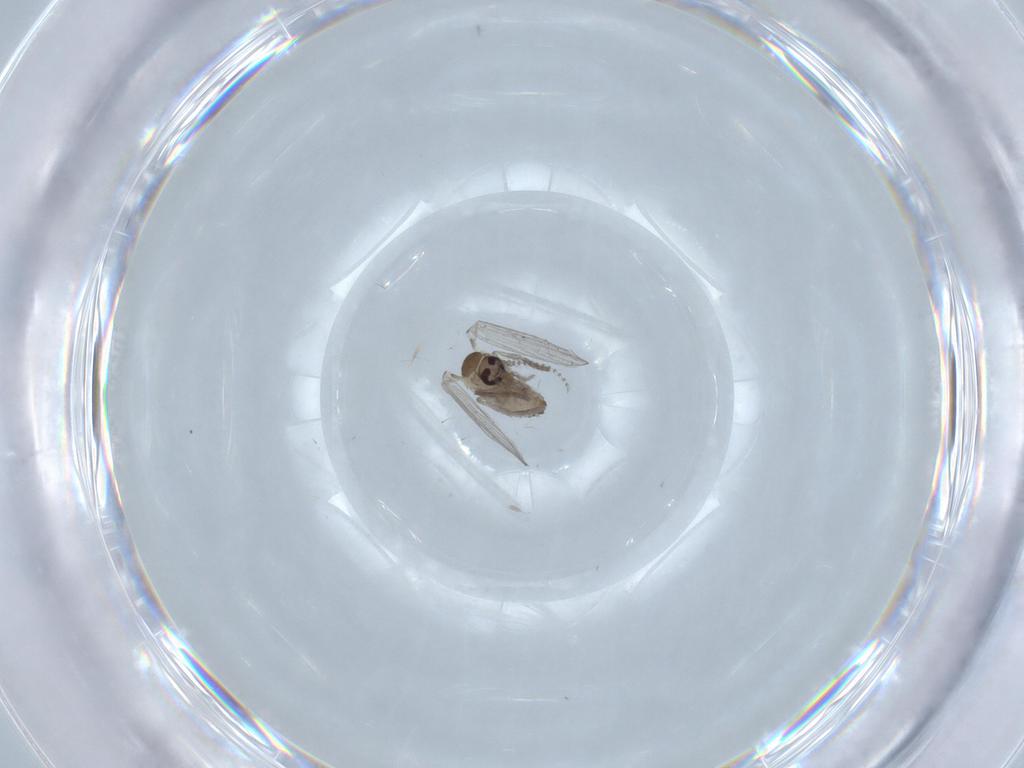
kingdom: Animalia
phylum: Arthropoda
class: Insecta
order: Diptera
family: Psychodidae
